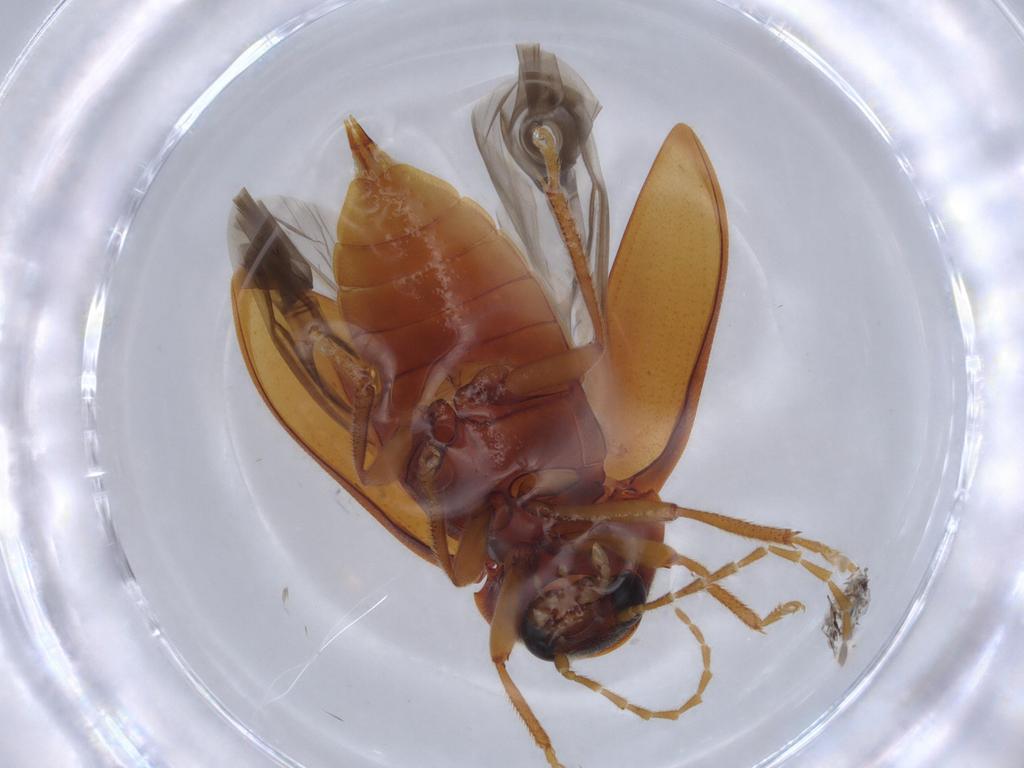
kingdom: Animalia
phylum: Arthropoda
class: Insecta
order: Coleoptera
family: Ptilodactylidae
